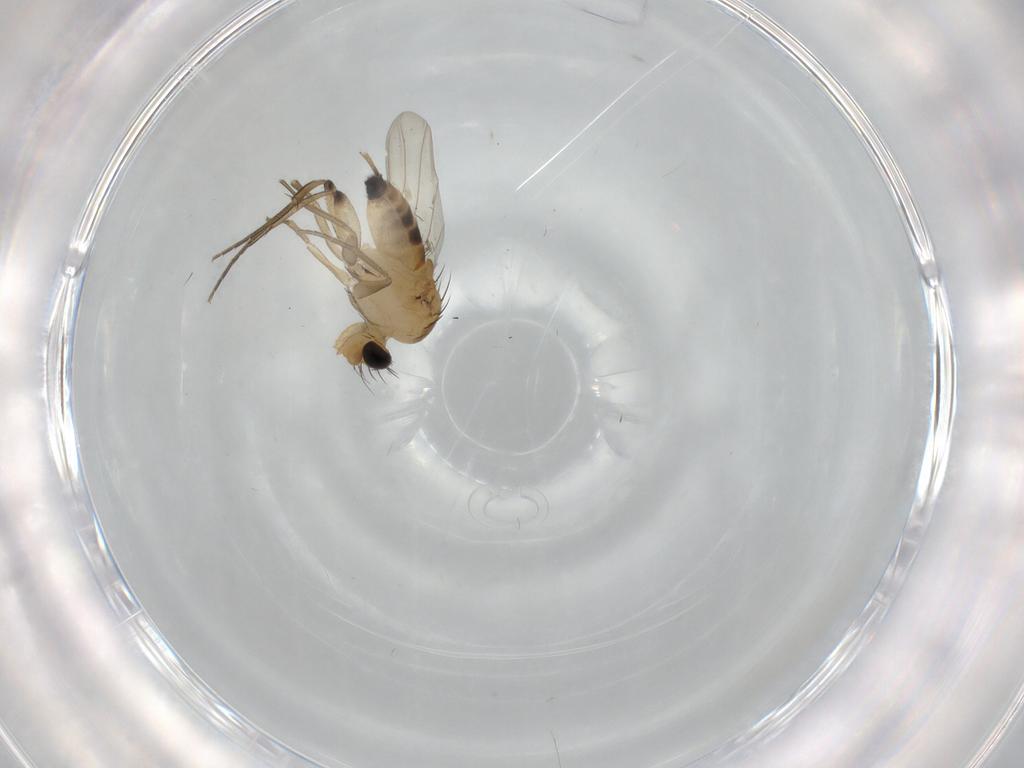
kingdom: Animalia
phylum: Arthropoda
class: Insecta
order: Diptera
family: Phoridae
